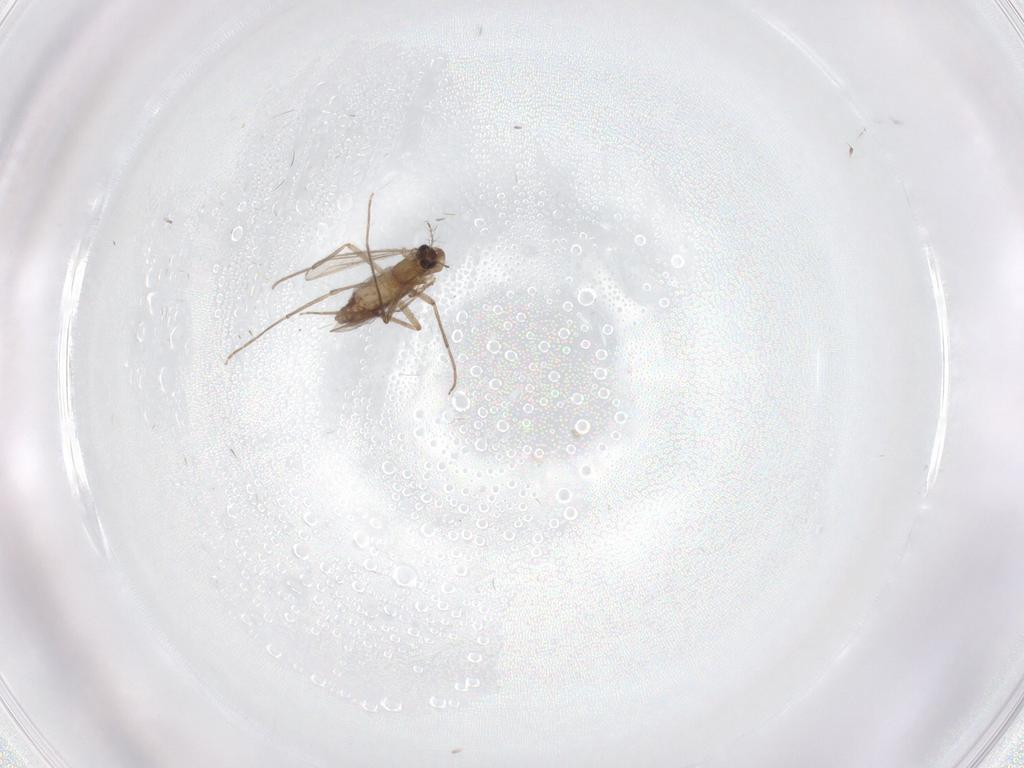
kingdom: Animalia
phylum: Arthropoda
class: Insecta
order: Diptera
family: Chironomidae
